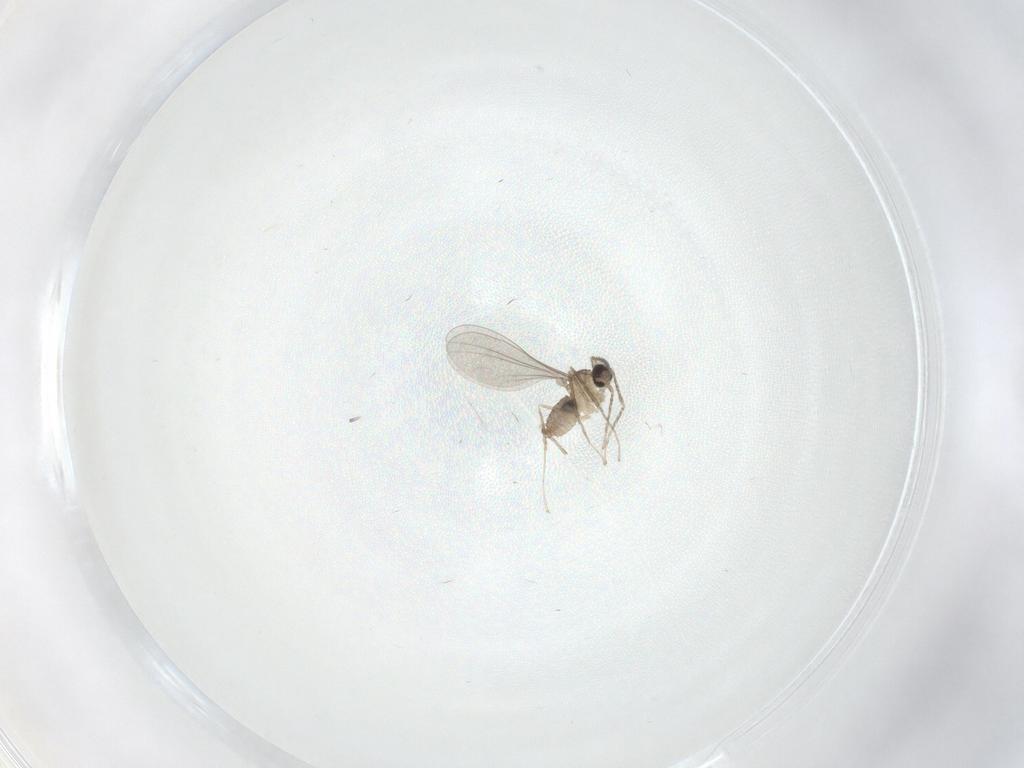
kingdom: Animalia
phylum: Arthropoda
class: Insecta
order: Diptera
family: Cecidomyiidae
